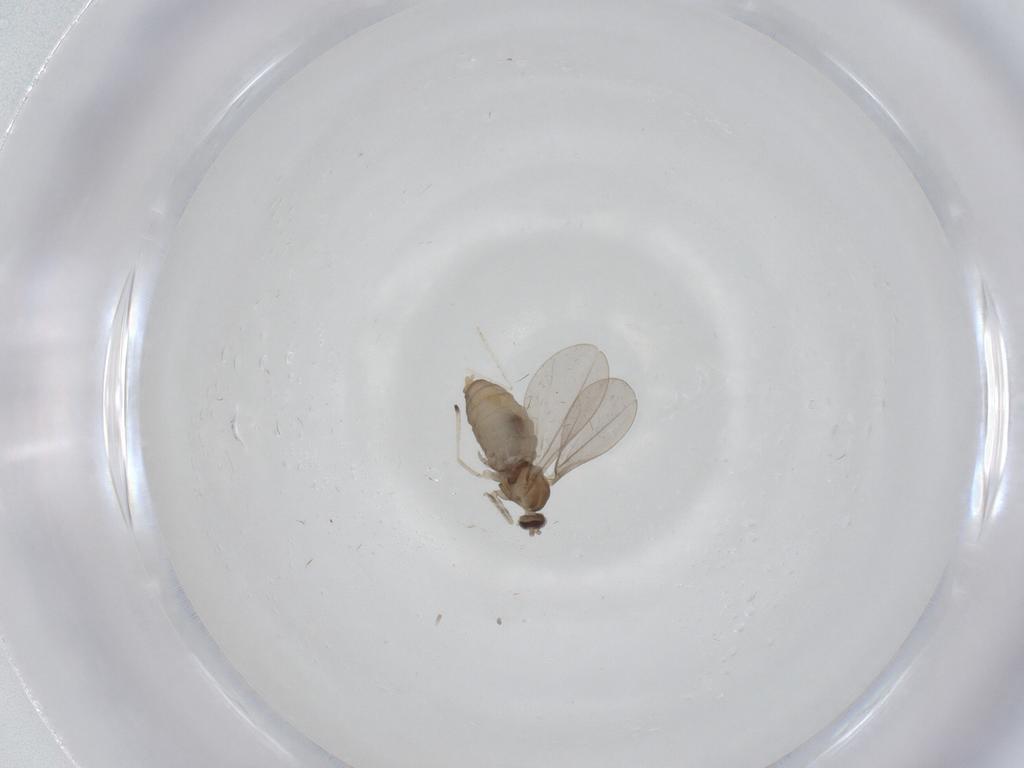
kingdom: Animalia
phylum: Arthropoda
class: Insecta
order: Diptera
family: Cecidomyiidae
